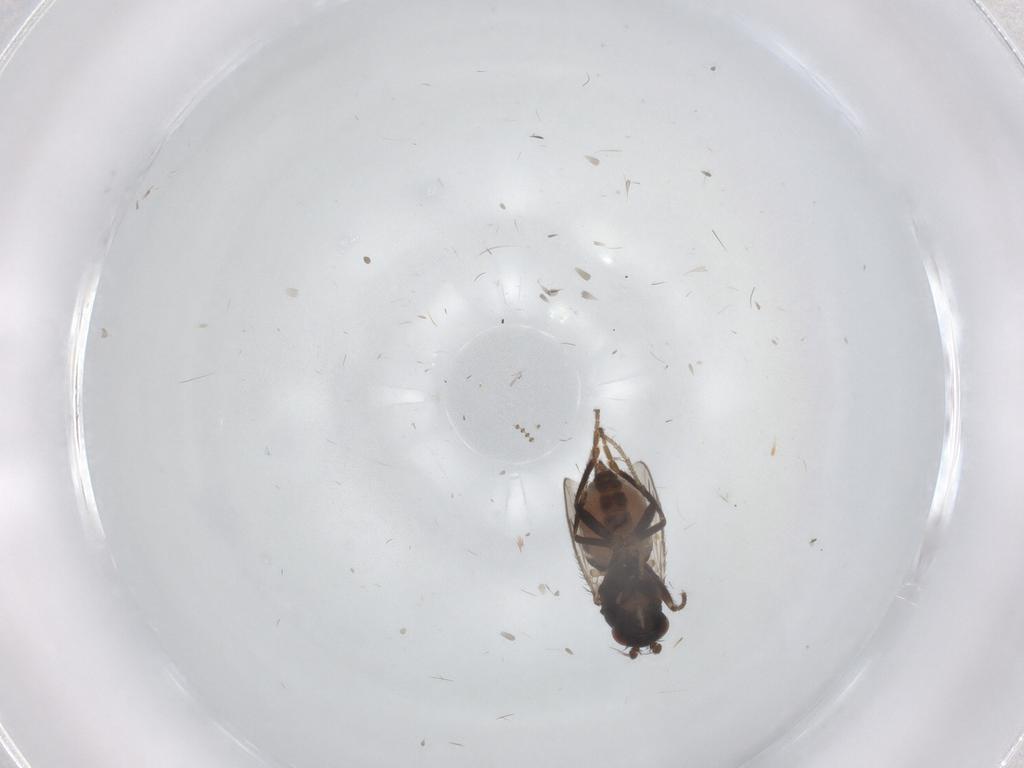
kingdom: Animalia
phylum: Arthropoda
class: Insecta
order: Diptera
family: Sphaeroceridae
